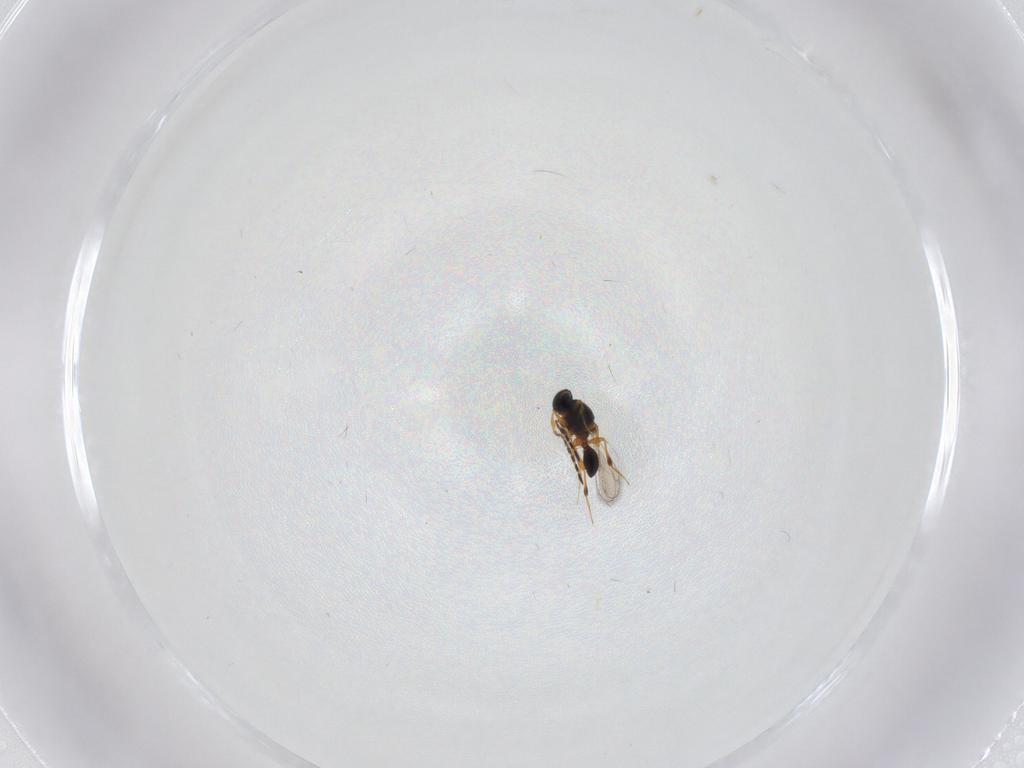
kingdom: Animalia
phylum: Arthropoda
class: Insecta
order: Hymenoptera
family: Platygastridae
